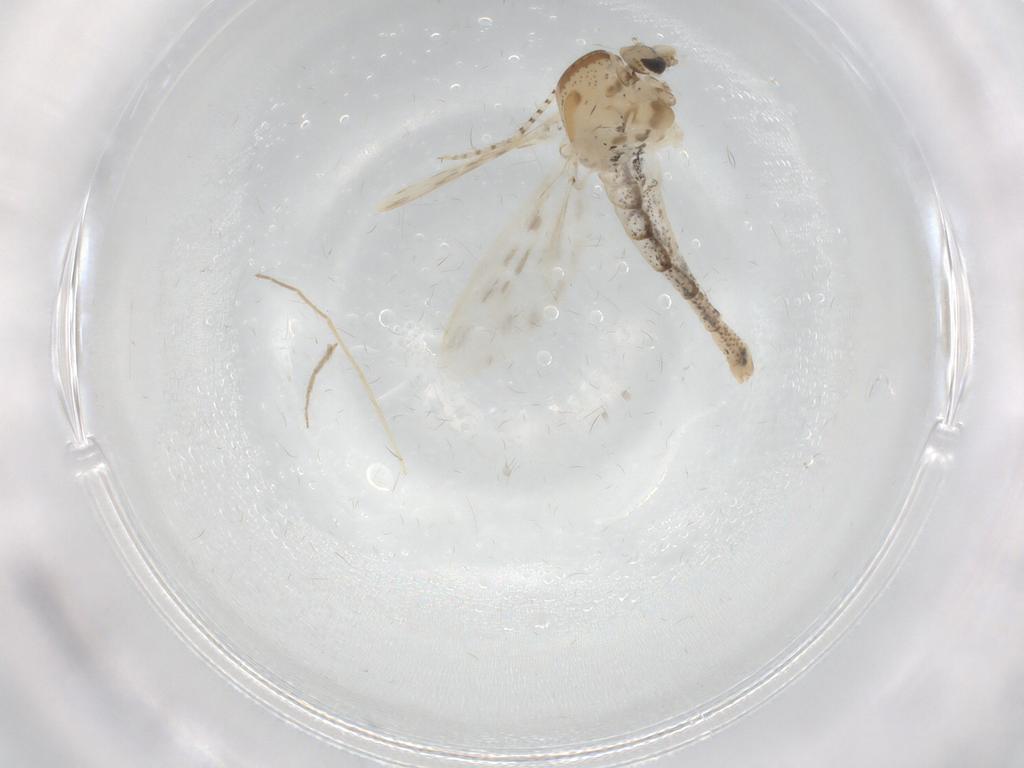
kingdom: Animalia
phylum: Arthropoda
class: Insecta
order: Diptera
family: Chaoboridae
